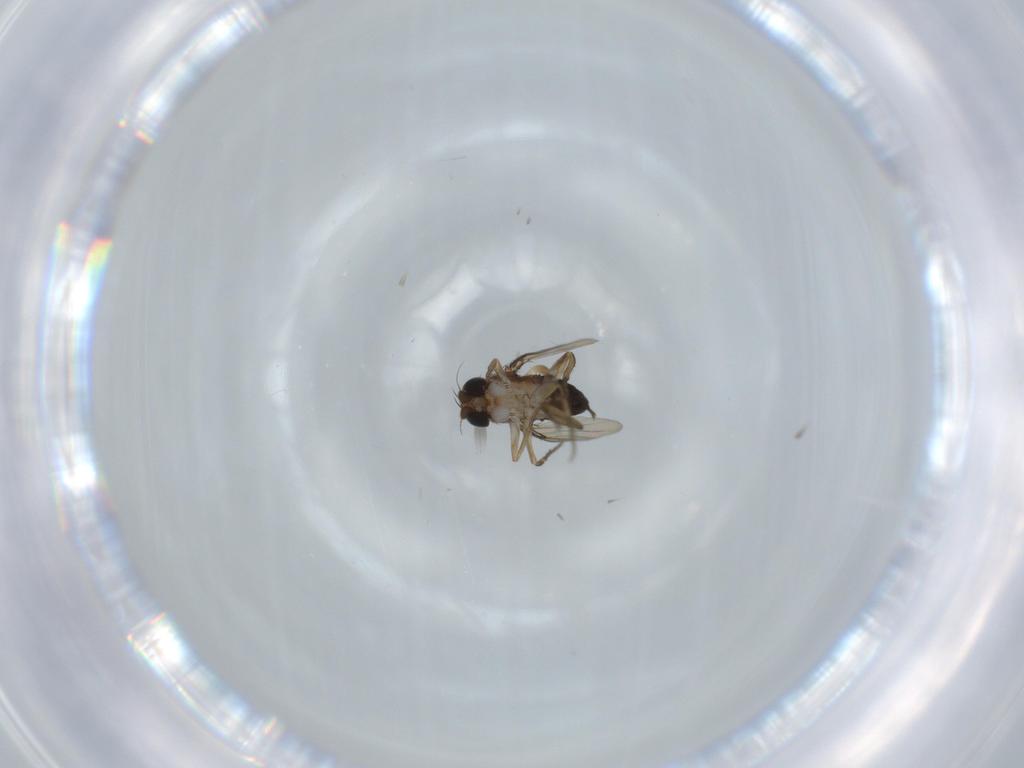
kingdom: Animalia
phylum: Arthropoda
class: Insecta
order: Diptera
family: Phoridae
